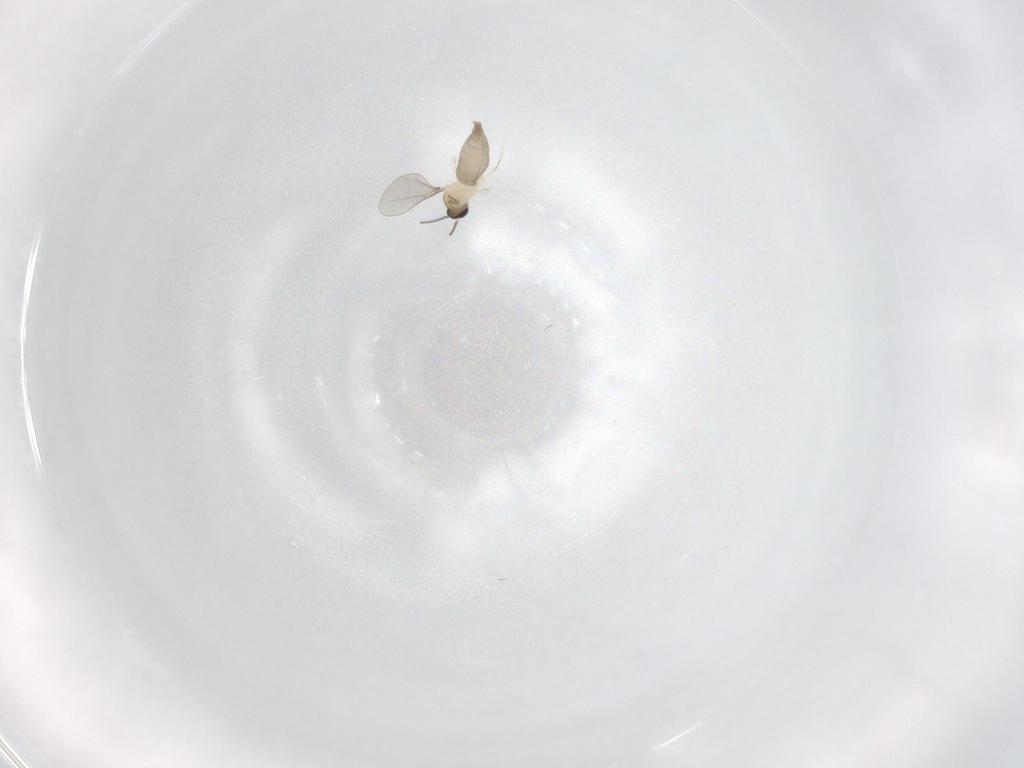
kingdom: Animalia
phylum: Arthropoda
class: Insecta
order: Diptera
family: Cecidomyiidae
